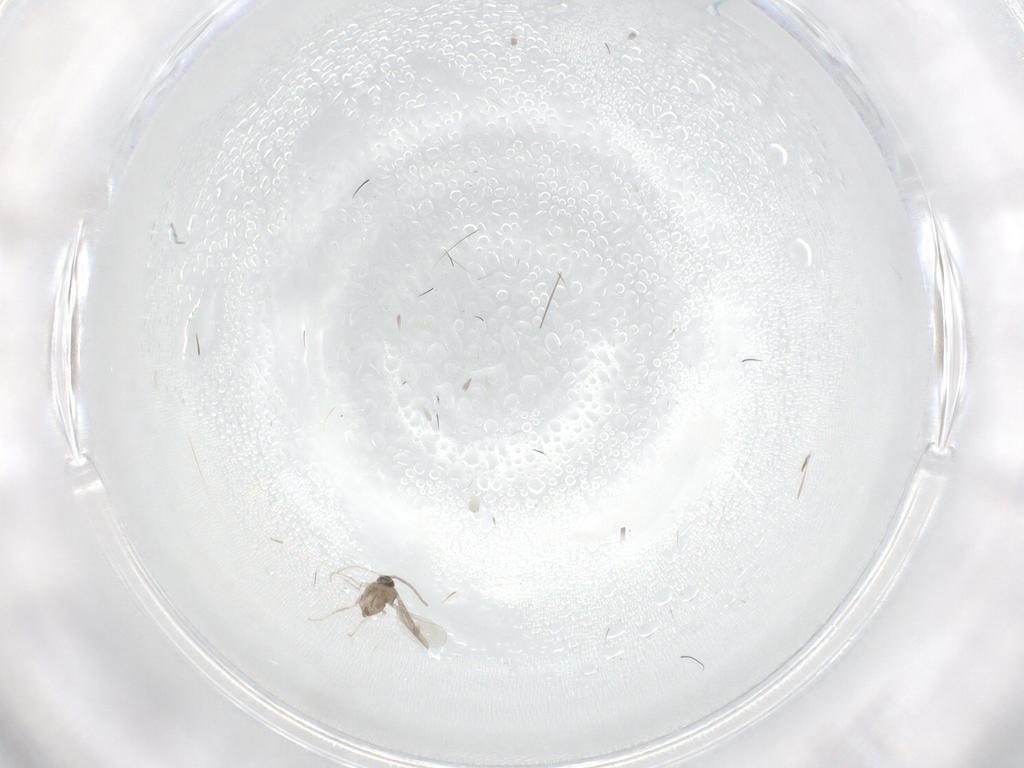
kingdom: Animalia
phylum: Arthropoda
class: Insecta
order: Diptera
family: Cecidomyiidae
